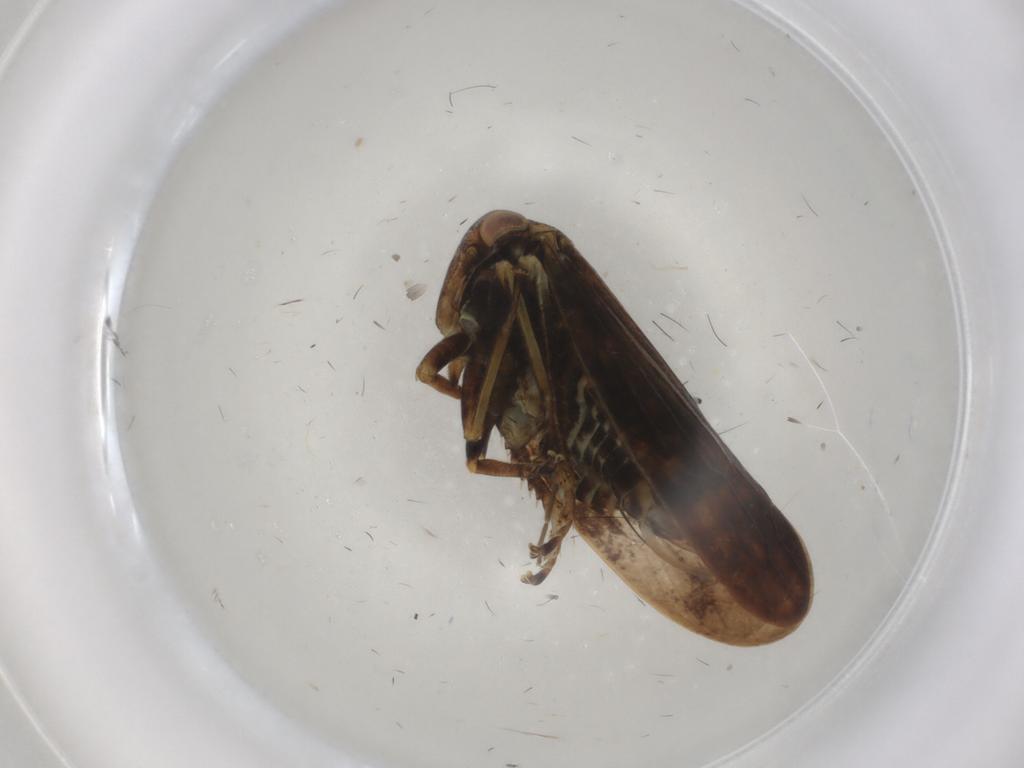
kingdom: Animalia
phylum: Arthropoda
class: Insecta
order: Hemiptera
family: Cicadellidae
